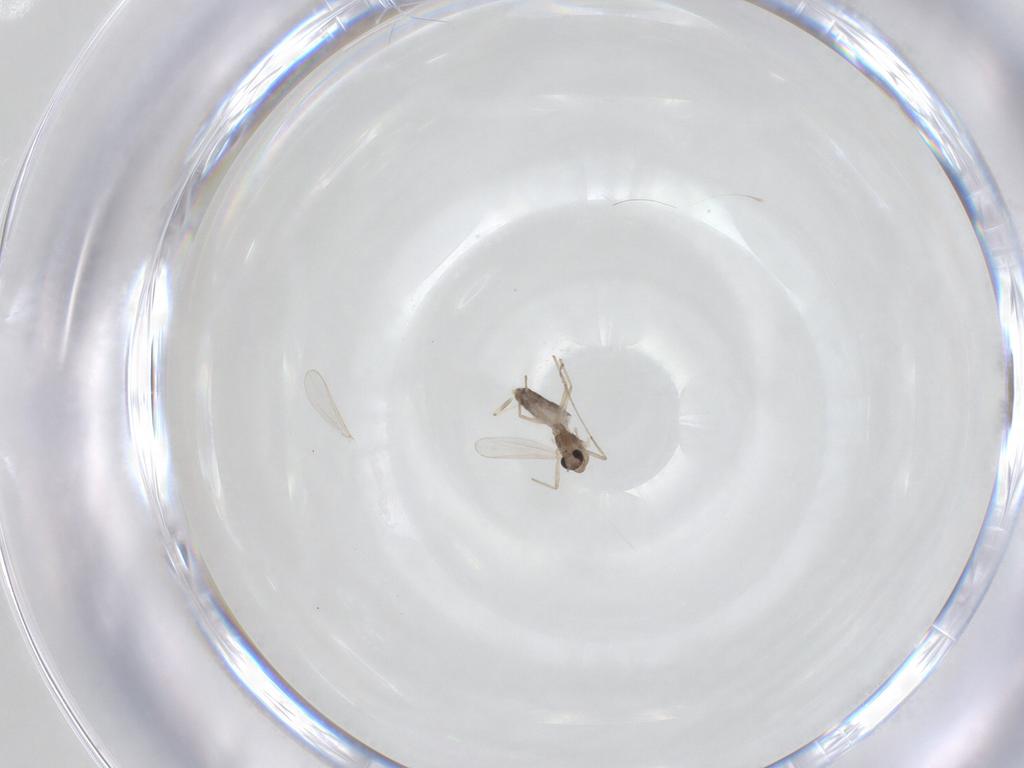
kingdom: Animalia
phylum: Arthropoda
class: Insecta
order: Diptera
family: Chironomidae
